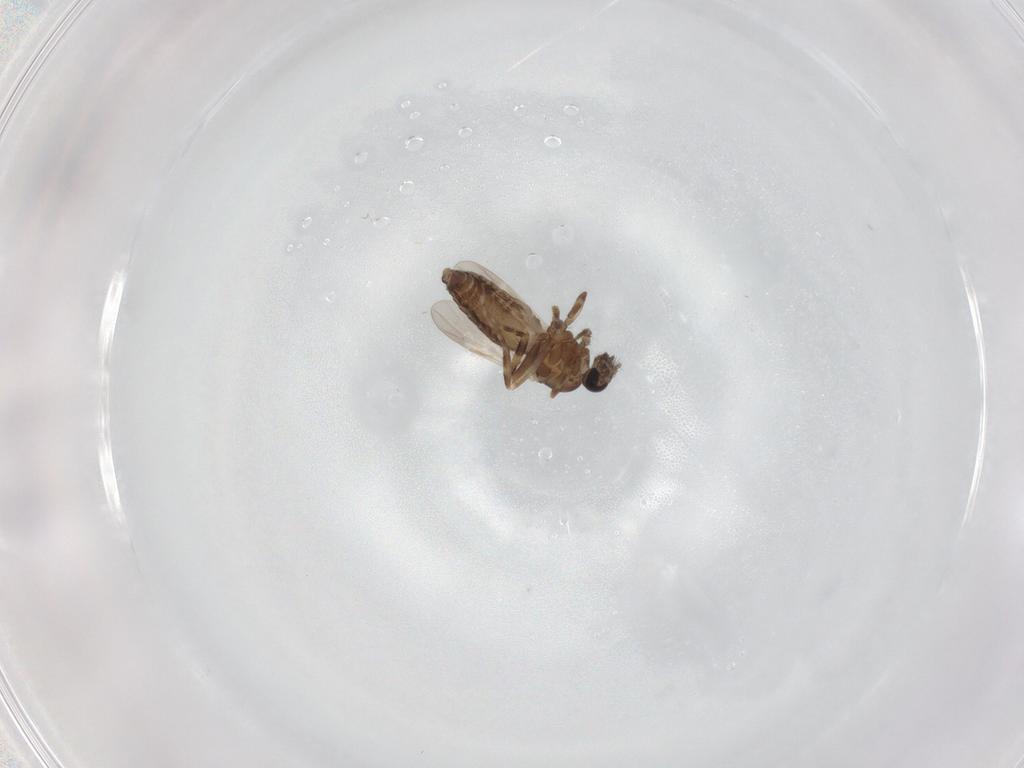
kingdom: Animalia
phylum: Arthropoda
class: Insecta
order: Diptera
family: Ceratopogonidae
